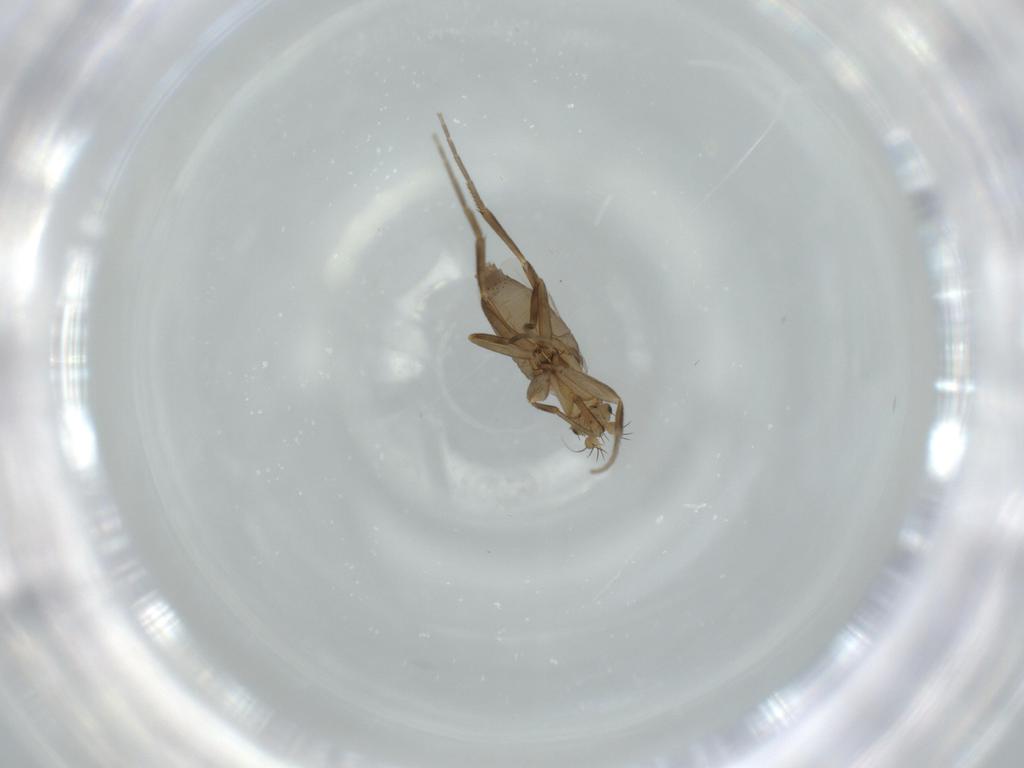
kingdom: Animalia
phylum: Arthropoda
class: Insecta
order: Diptera
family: Phoridae
